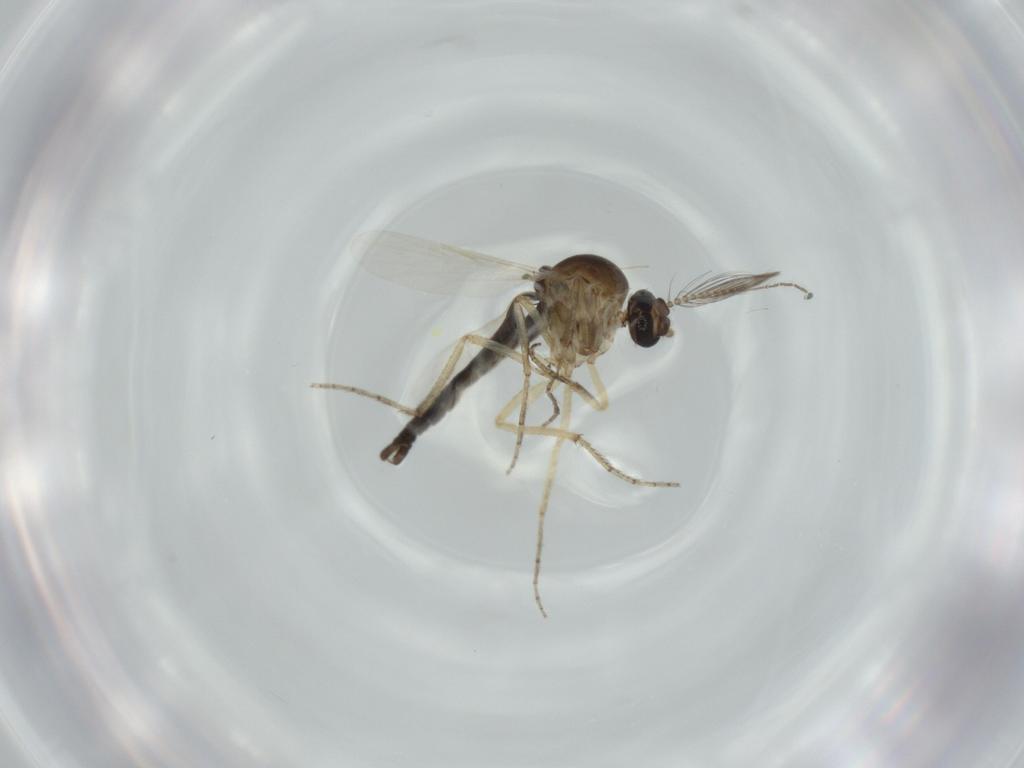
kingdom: Animalia
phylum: Arthropoda
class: Insecta
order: Diptera
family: Ceratopogonidae
